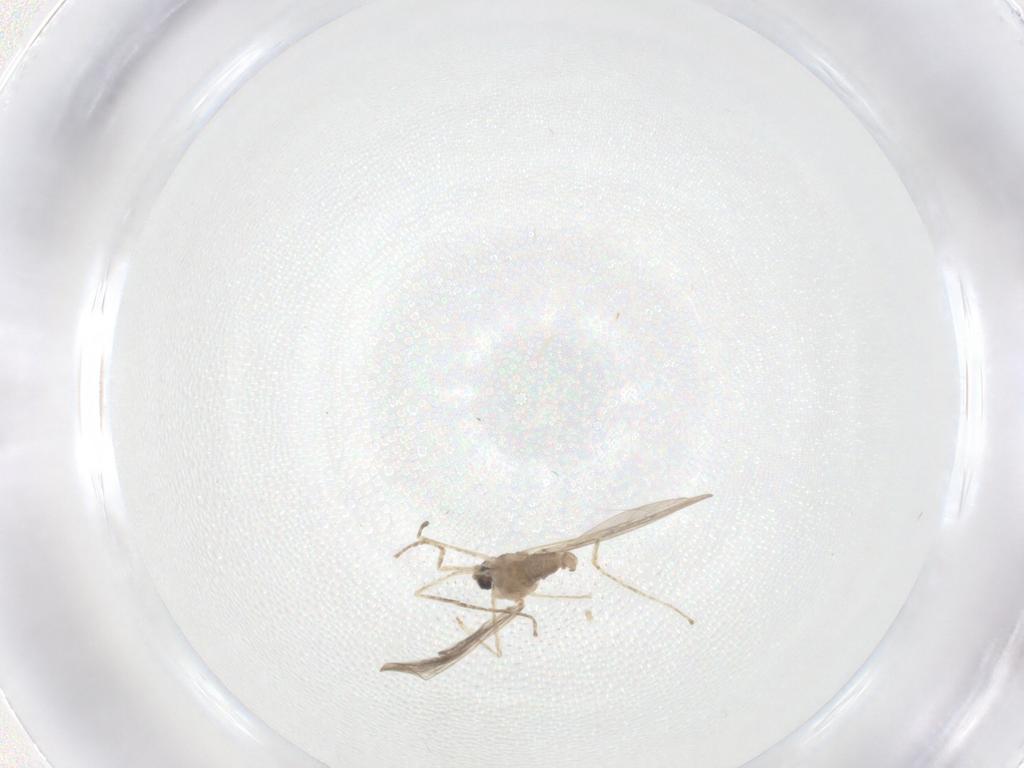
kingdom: Animalia
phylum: Arthropoda
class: Insecta
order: Diptera
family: Cecidomyiidae
